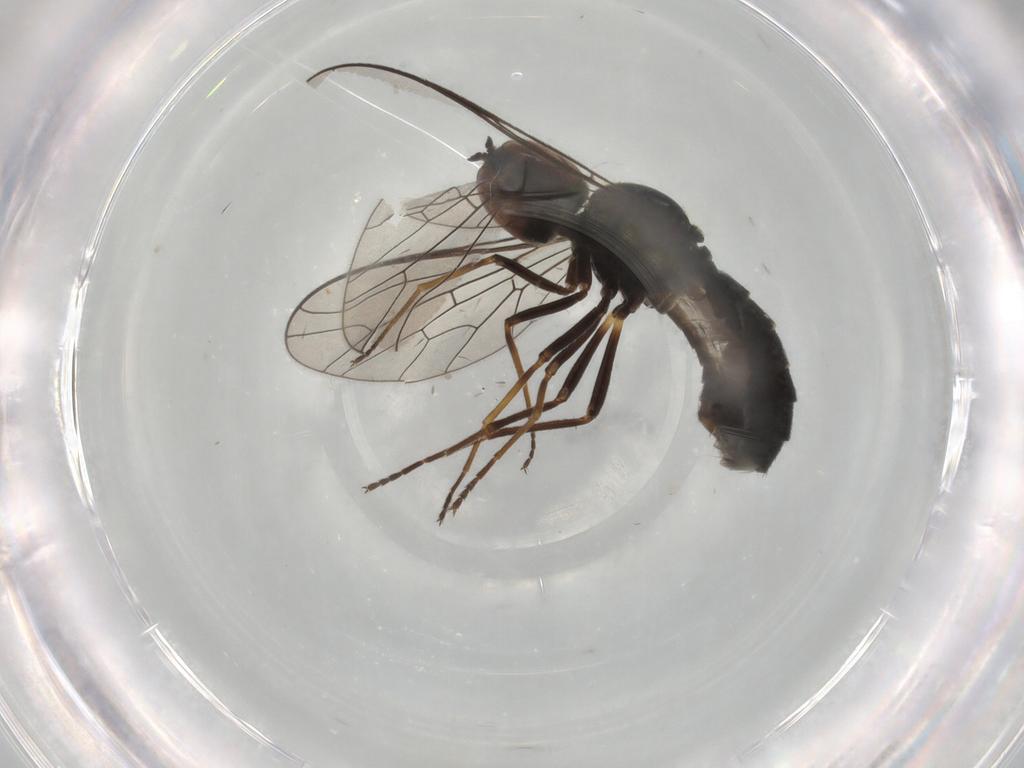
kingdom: Animalia
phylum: Arthropoda
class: Insecta
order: Diptera
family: Bombyliidae
